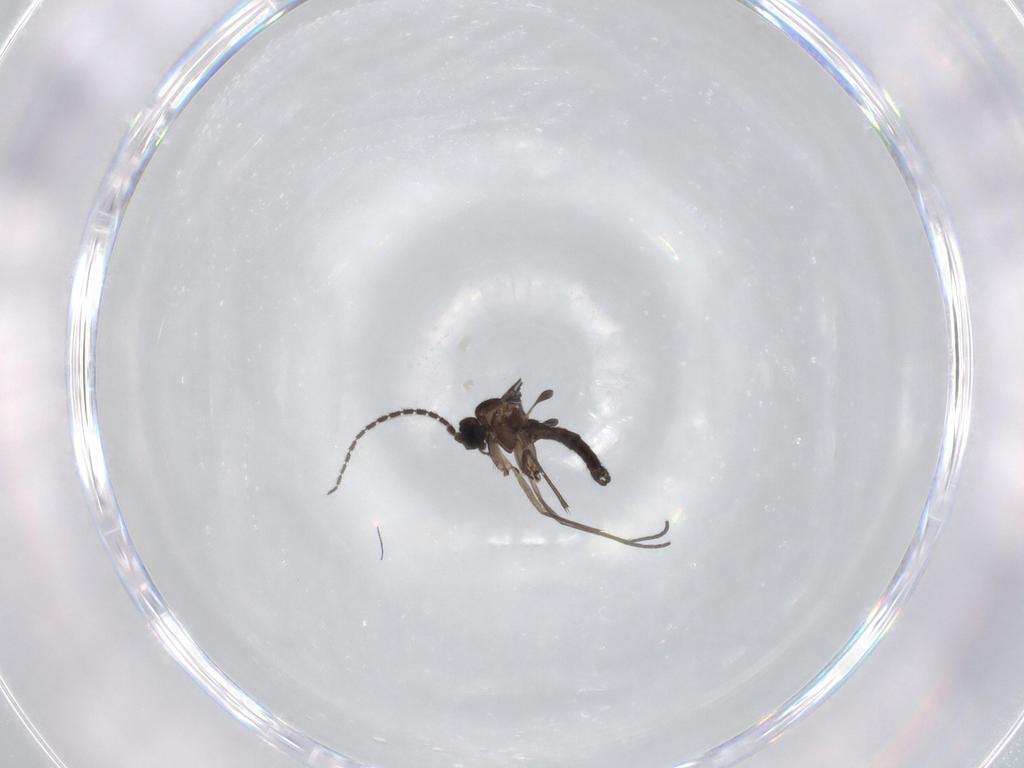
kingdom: Animalia
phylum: Arthropoda
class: Insecta
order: Diptera
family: Sciaridae
